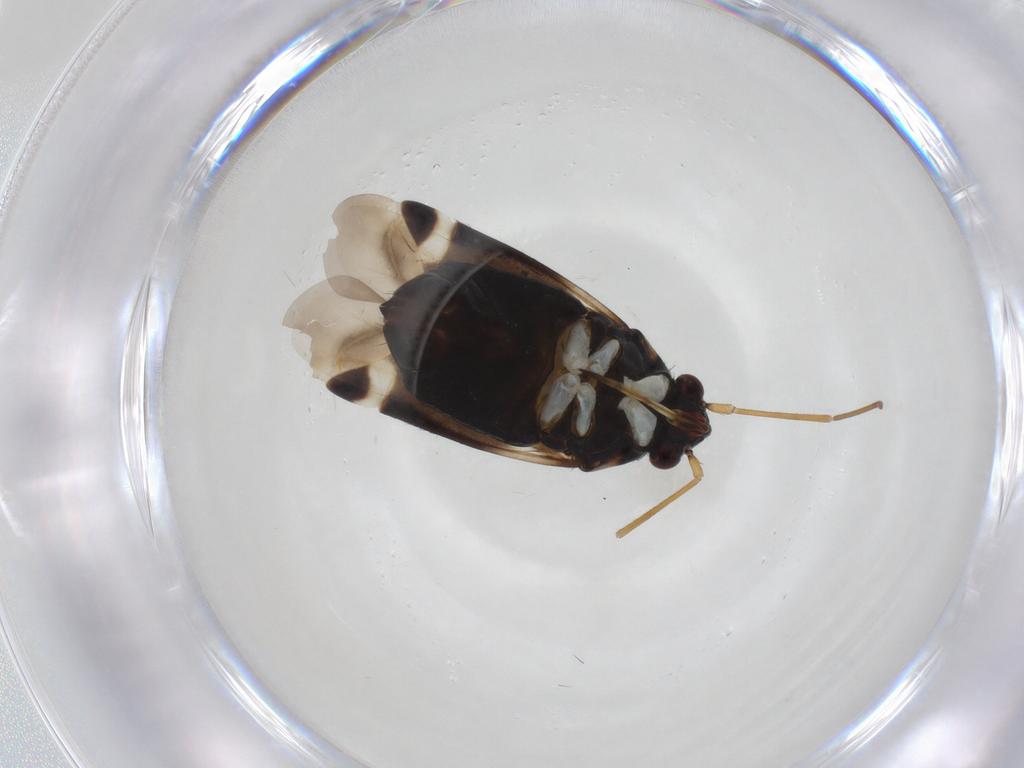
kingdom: Animalia
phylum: Arthropoda
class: Insecta
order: Hemiptera
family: Miridae
